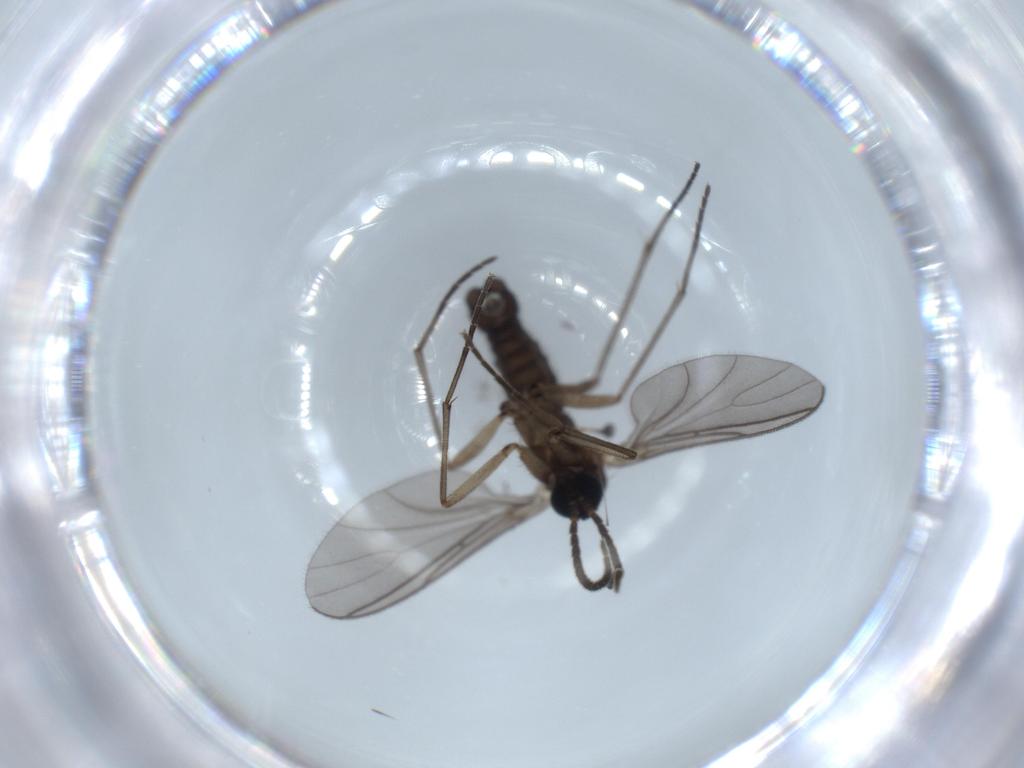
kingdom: Animalia
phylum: Arthropoda
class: Insecta
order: Diptera
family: Sciaridae
